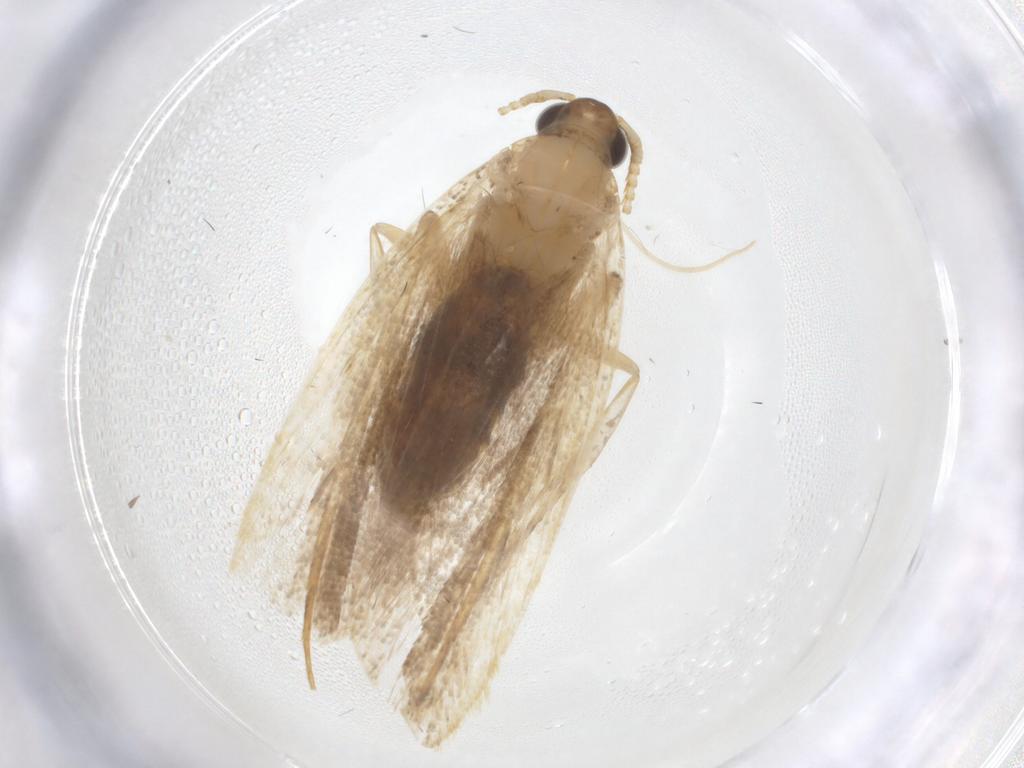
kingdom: Animalia
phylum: Arthropoda
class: Insecta
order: Lepidoptera
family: Lecithoceridae
